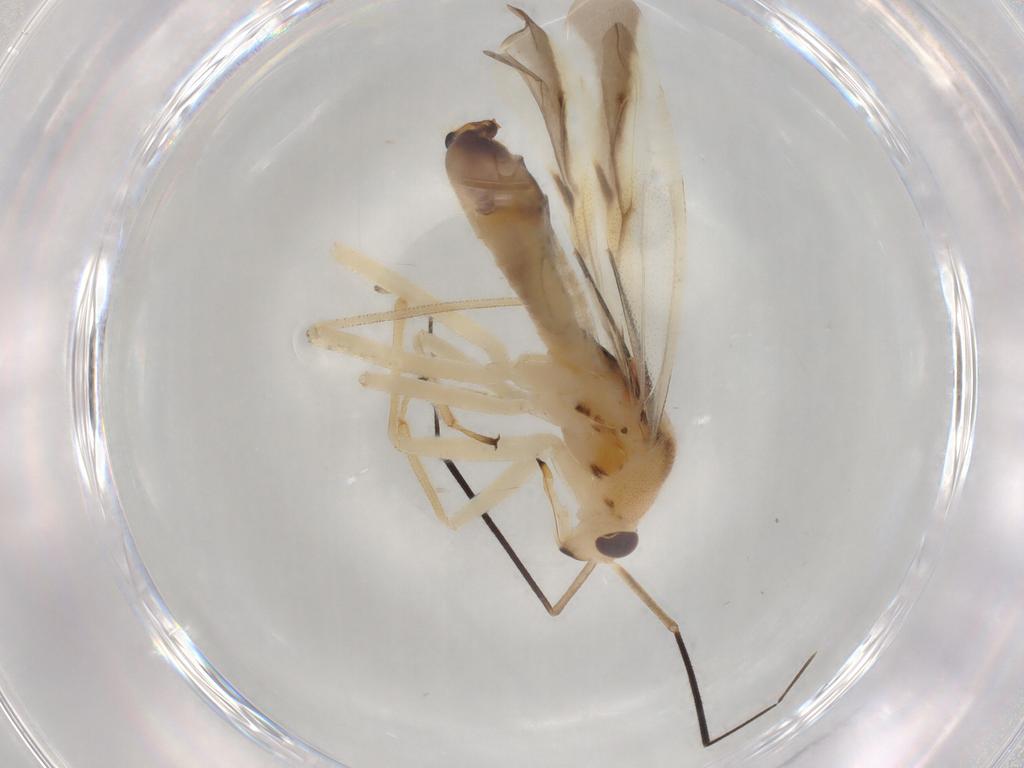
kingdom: Animalia
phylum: Arthropoda
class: Insecta
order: Hemiptera
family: Miridae
